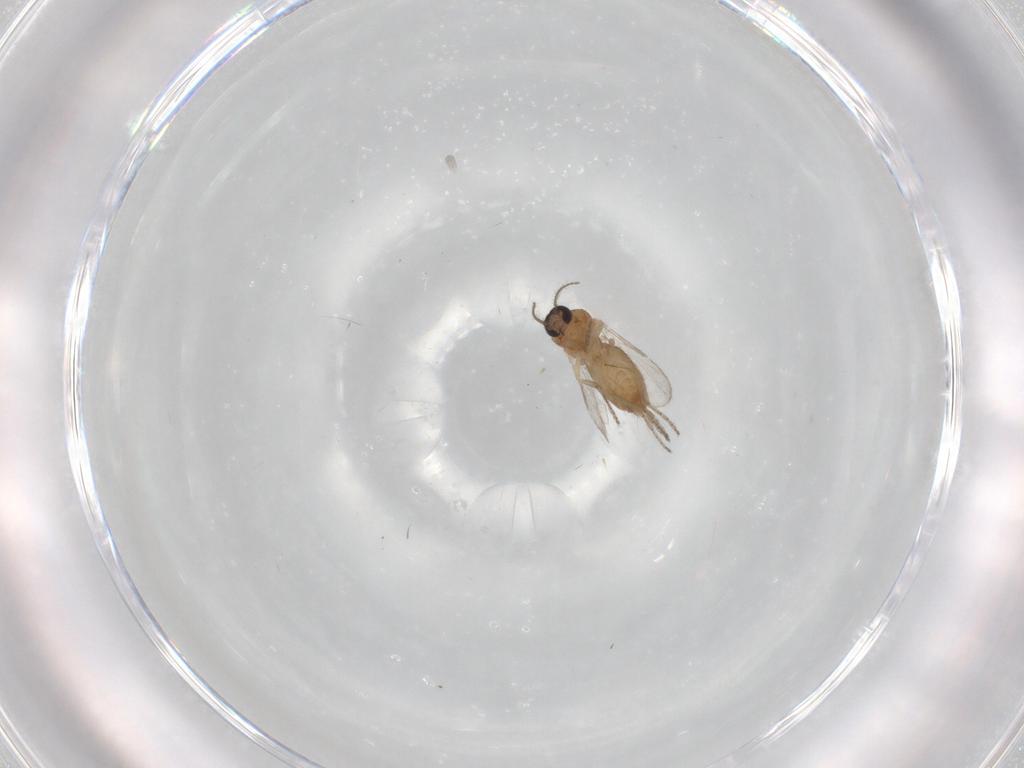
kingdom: Animalia
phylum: Arthropoda
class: Insecta
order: Diptera
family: Ceratopogonidae
